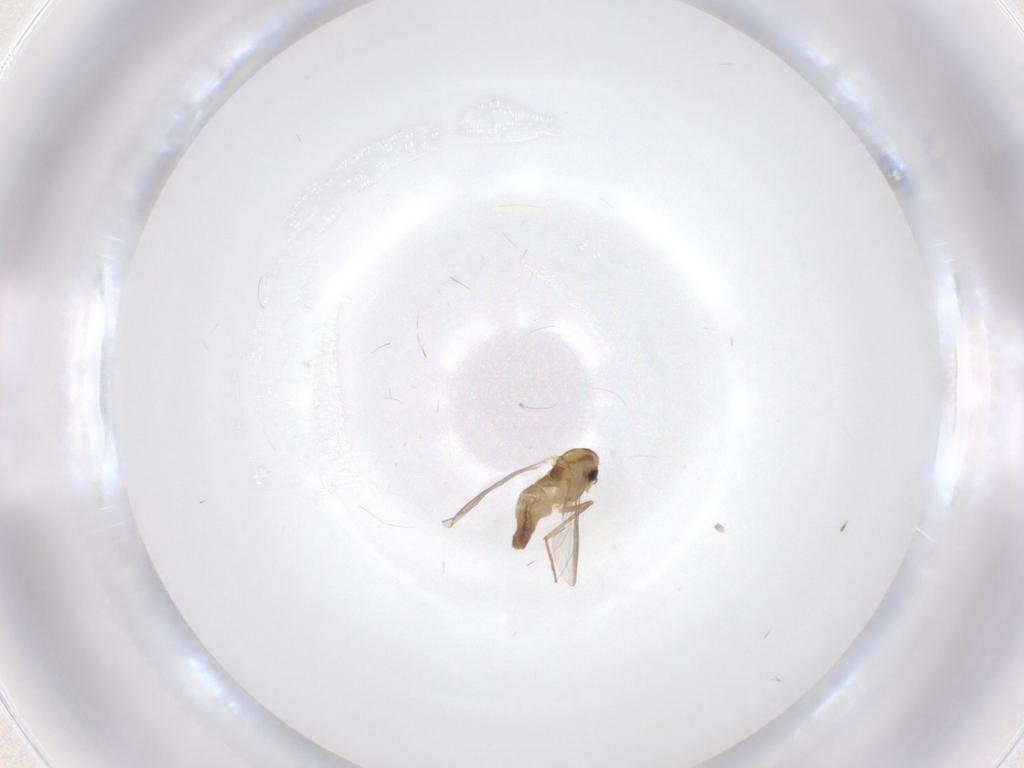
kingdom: Animalia
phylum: Arthropoda
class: Insecta
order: Diptera
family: Chironomidae
